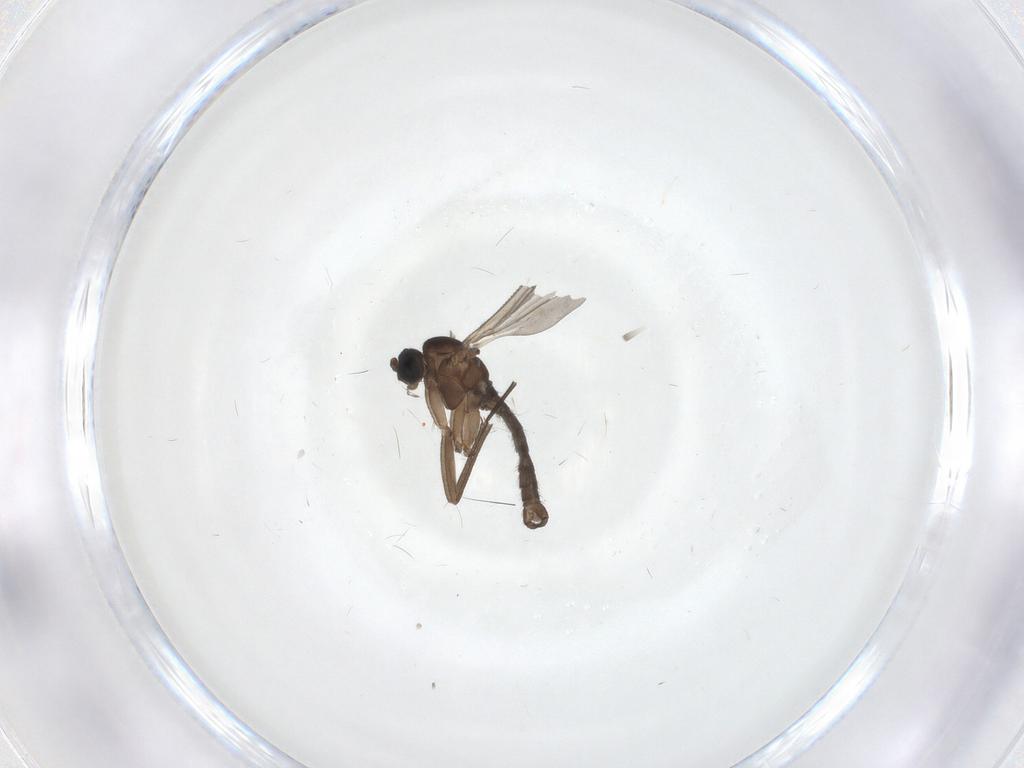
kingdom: Animalia
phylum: Arthropoda
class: Insecta
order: Diptera
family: Sciaridae
